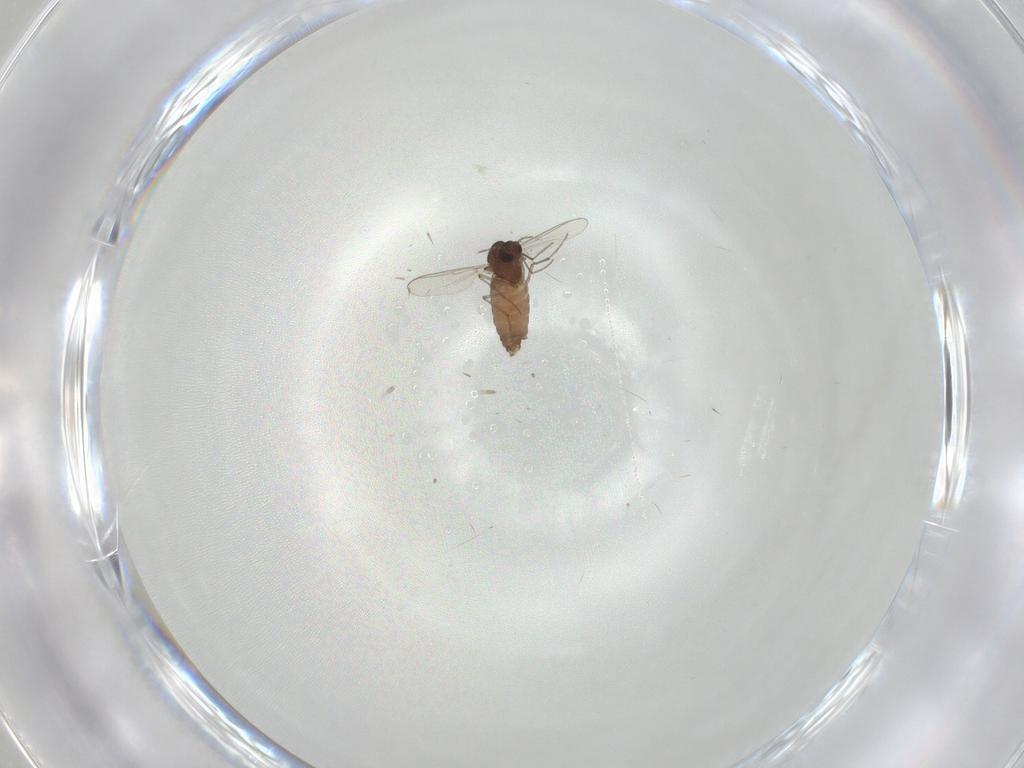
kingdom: Animalia
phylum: Arthropoda
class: Insecta
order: Diptera
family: Chironomidae
